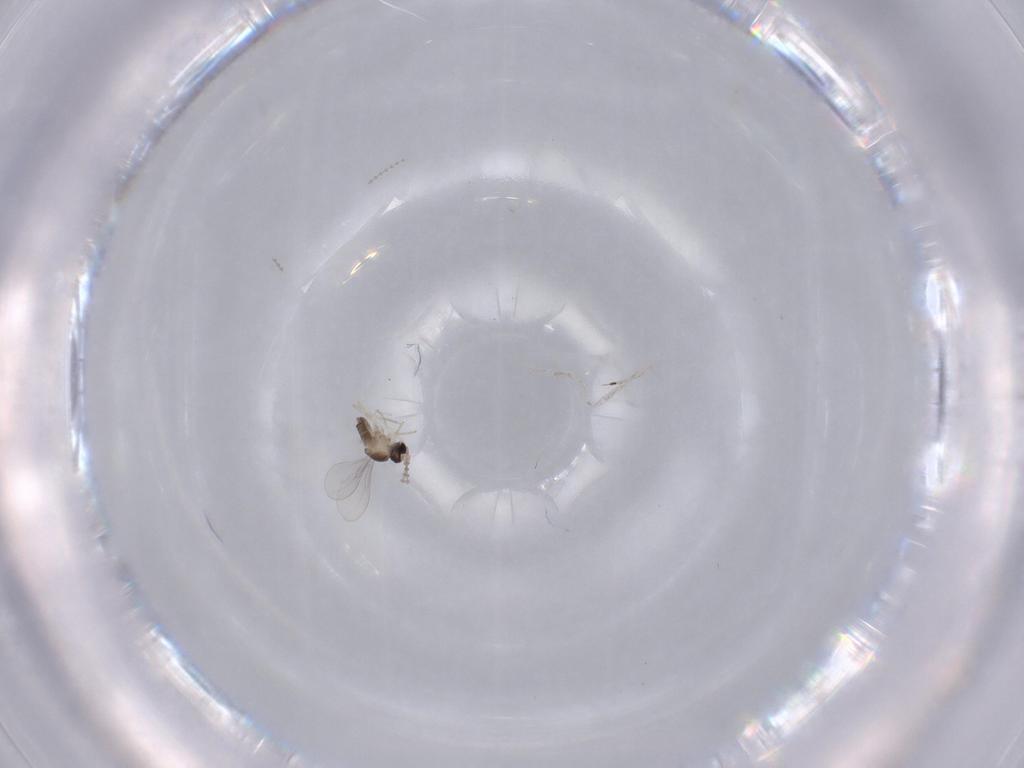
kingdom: Animalia
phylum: Arthropoda
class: Insecta
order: Diptera
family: Cecidomyiidae
